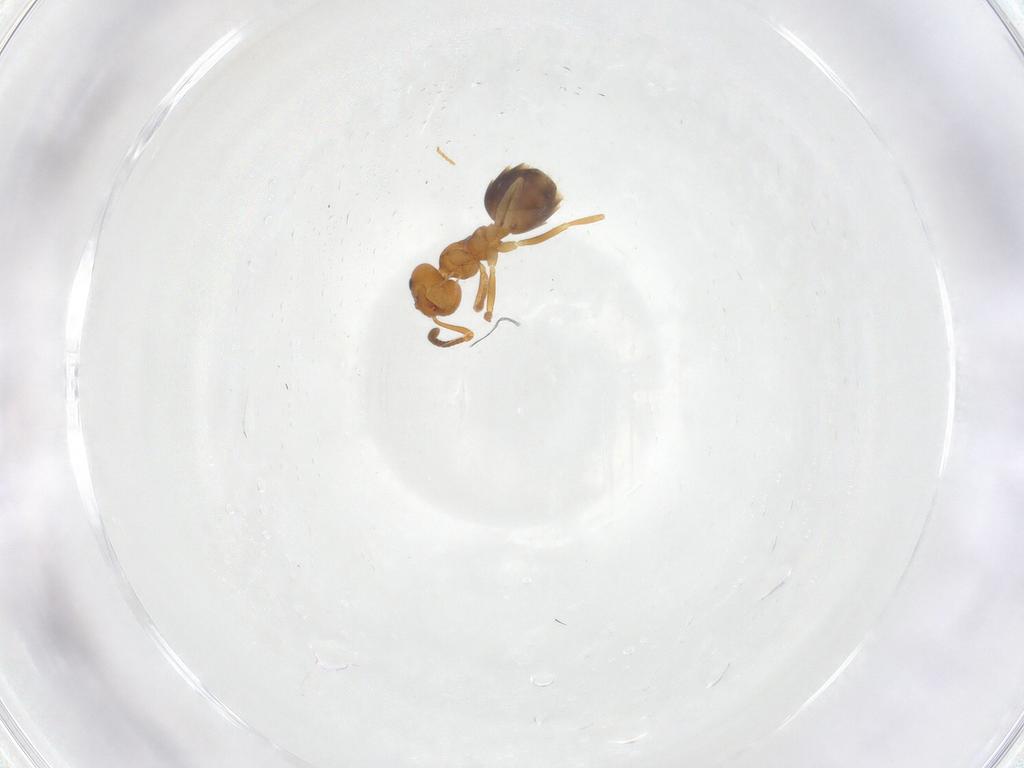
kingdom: Animalia
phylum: Arthropoda
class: Insecta
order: Hymenoptera
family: Formicidae
